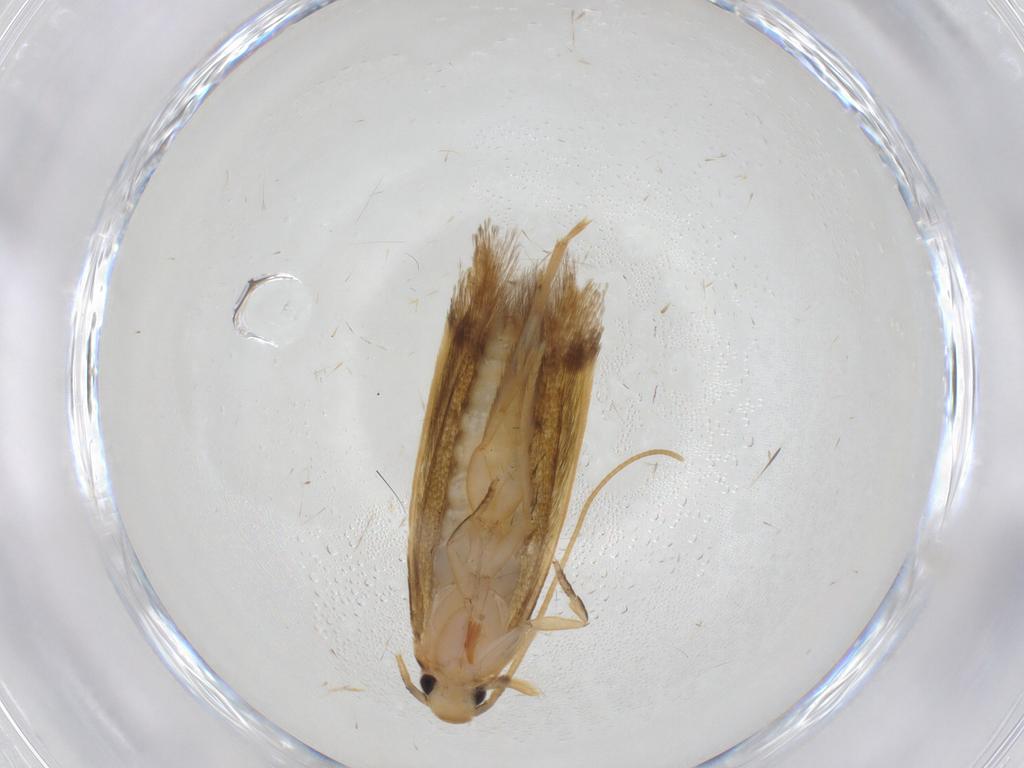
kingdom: Animalia
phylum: Arthropoda
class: Insecta
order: Lepidoptera
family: Tineidae
